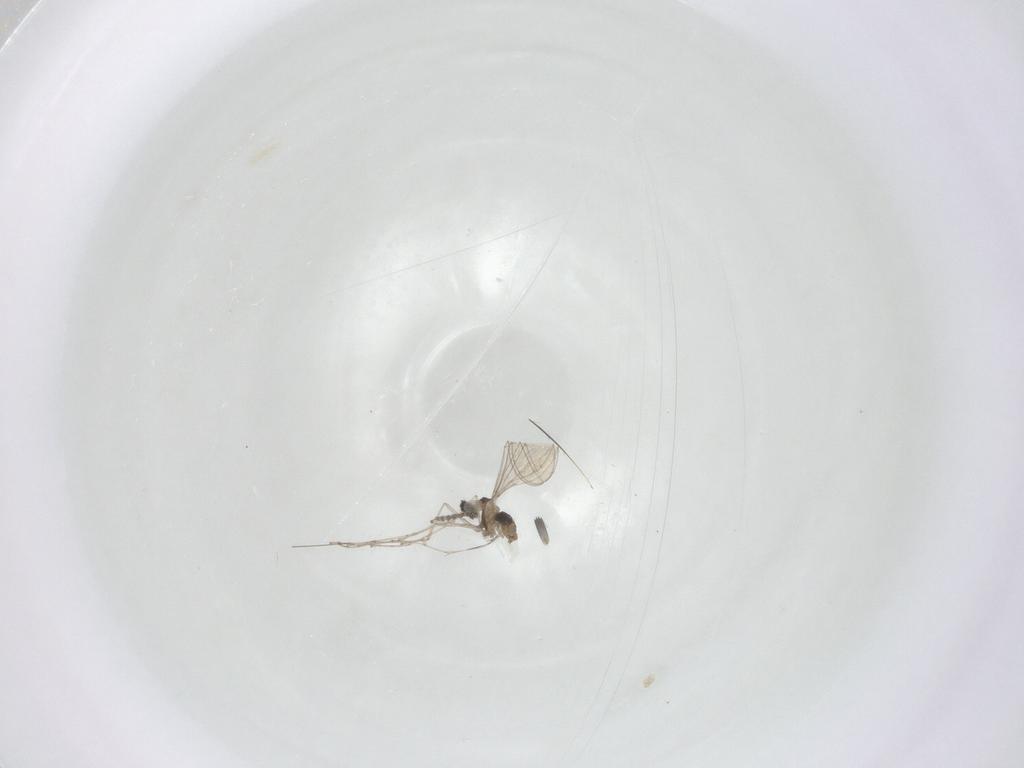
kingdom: Animalia
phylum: Arthropoda
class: Insecta
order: Diptera
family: Cecidomyiidae
